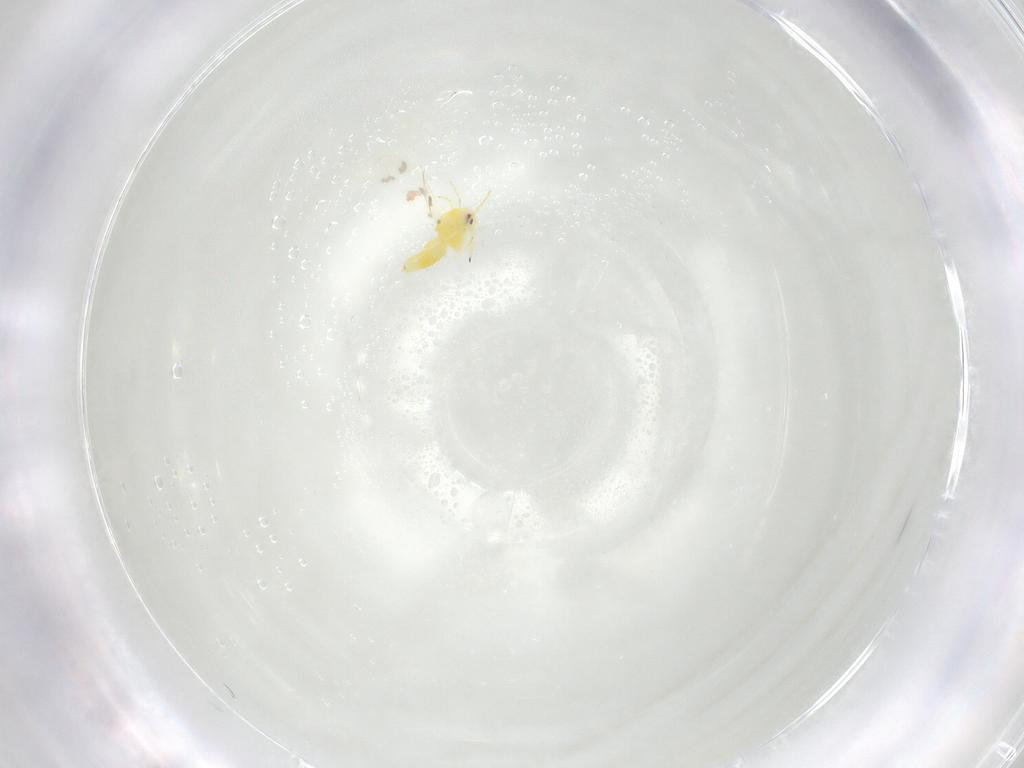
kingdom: Animalia
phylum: Arthropoda
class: Insecta
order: Hemiptera
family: Aleyrodidae
